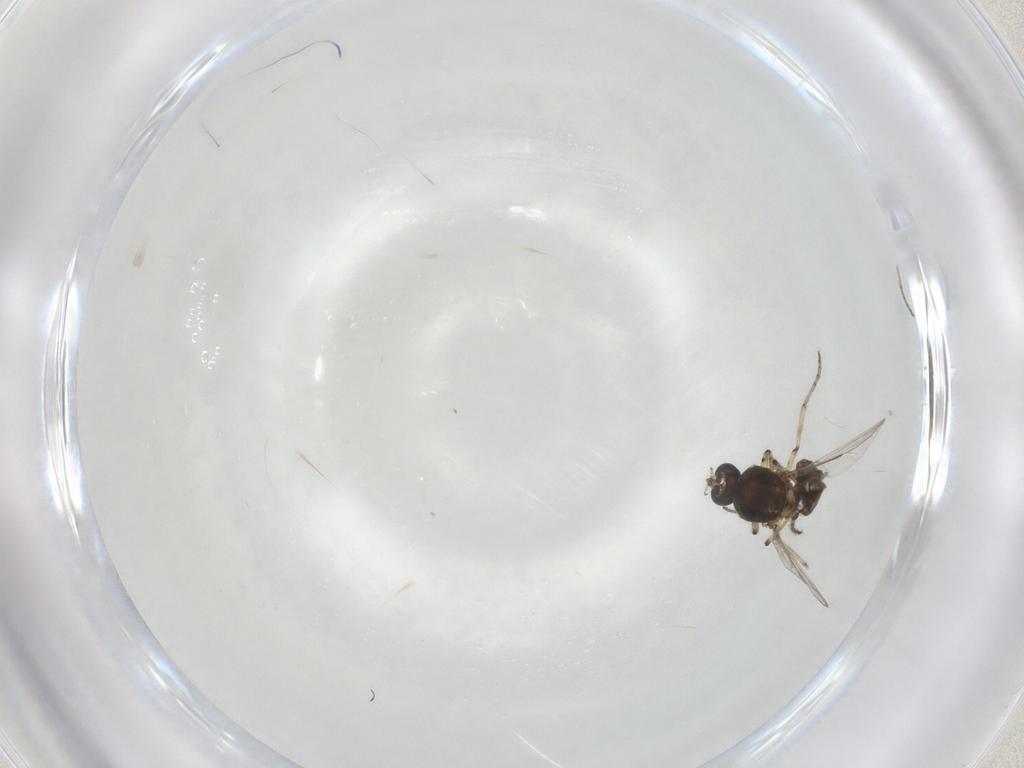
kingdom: Animalia
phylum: Arthropoda
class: Insecta
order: Diptera
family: Ceratopogonidae
